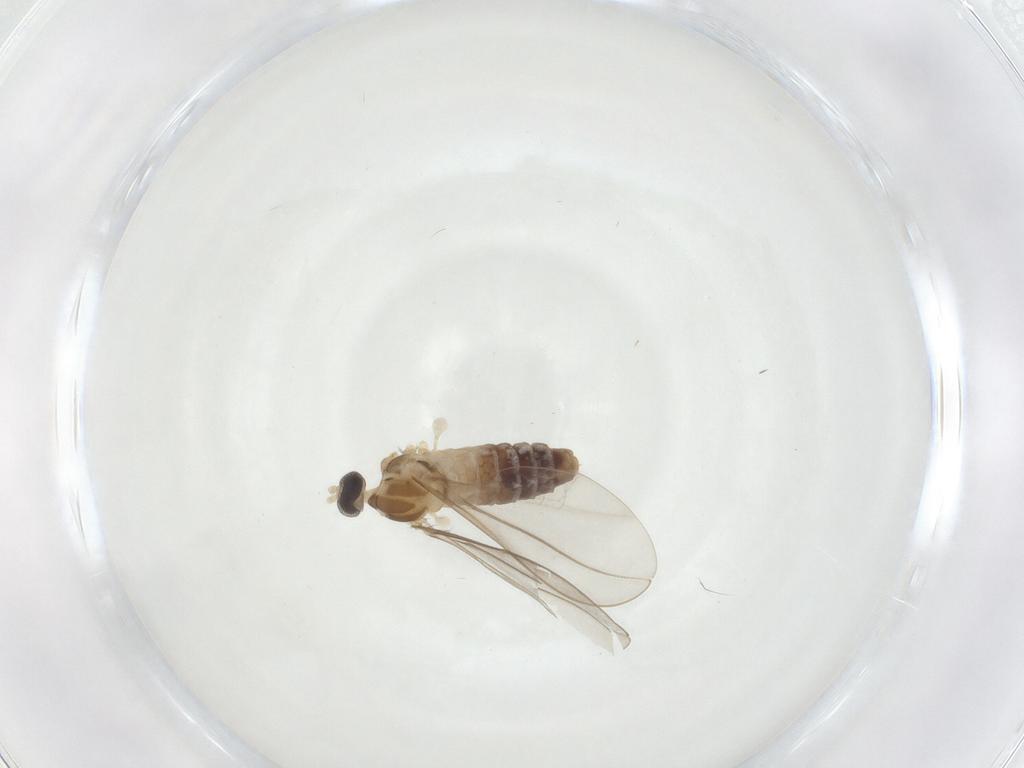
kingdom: Animalia
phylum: Arthropoda
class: Insecta
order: Diptera
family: Cecidomyiidae
